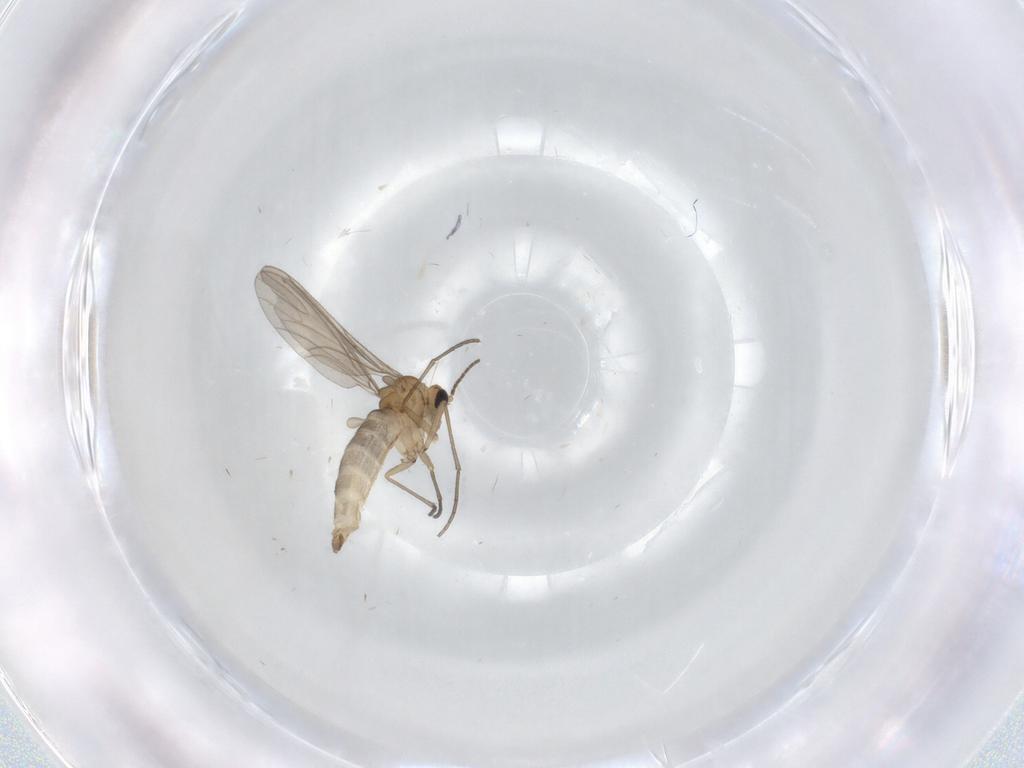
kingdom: Animalia
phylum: Arthropoda
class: Insecta
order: Diptera
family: Sciaridae
